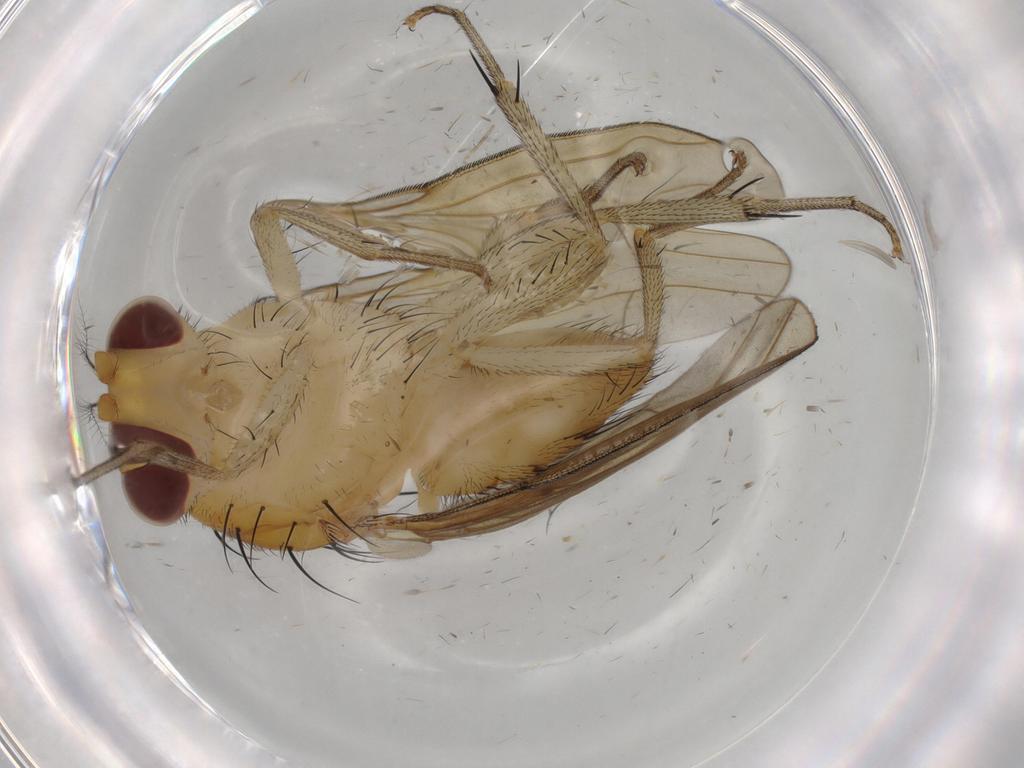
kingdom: Animalia
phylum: Arthropoda
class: Insecta
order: Diptera
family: Phoridae
